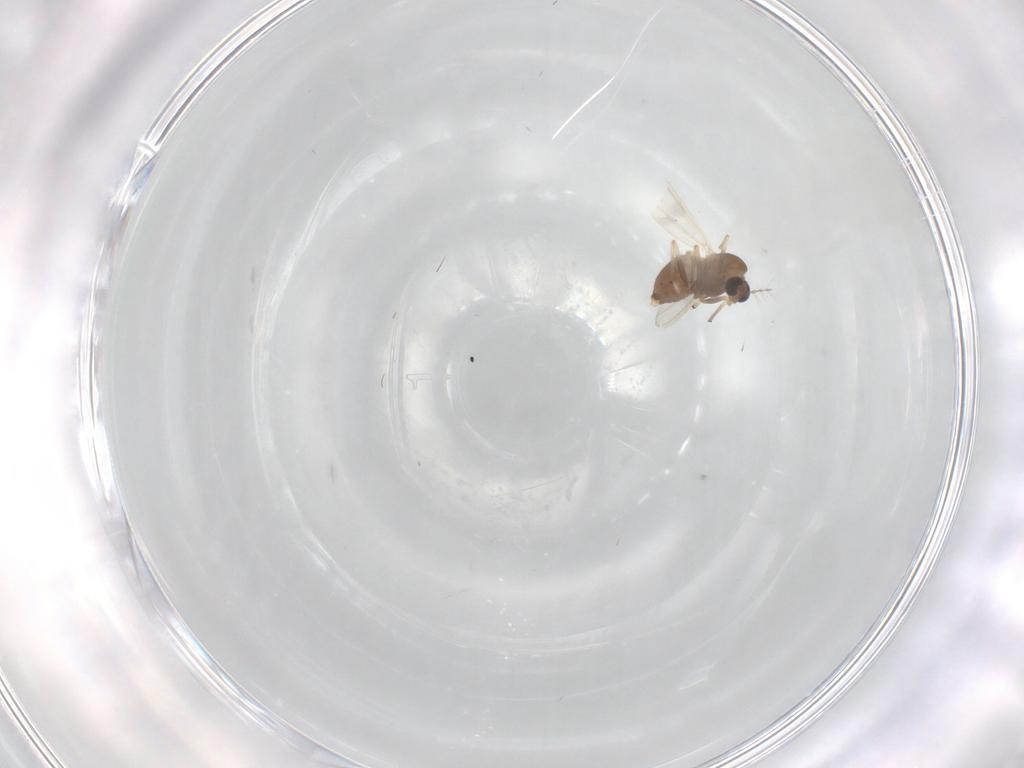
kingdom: Animalia
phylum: Arthropoda
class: Insecta
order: Diptera
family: Chironomidae
